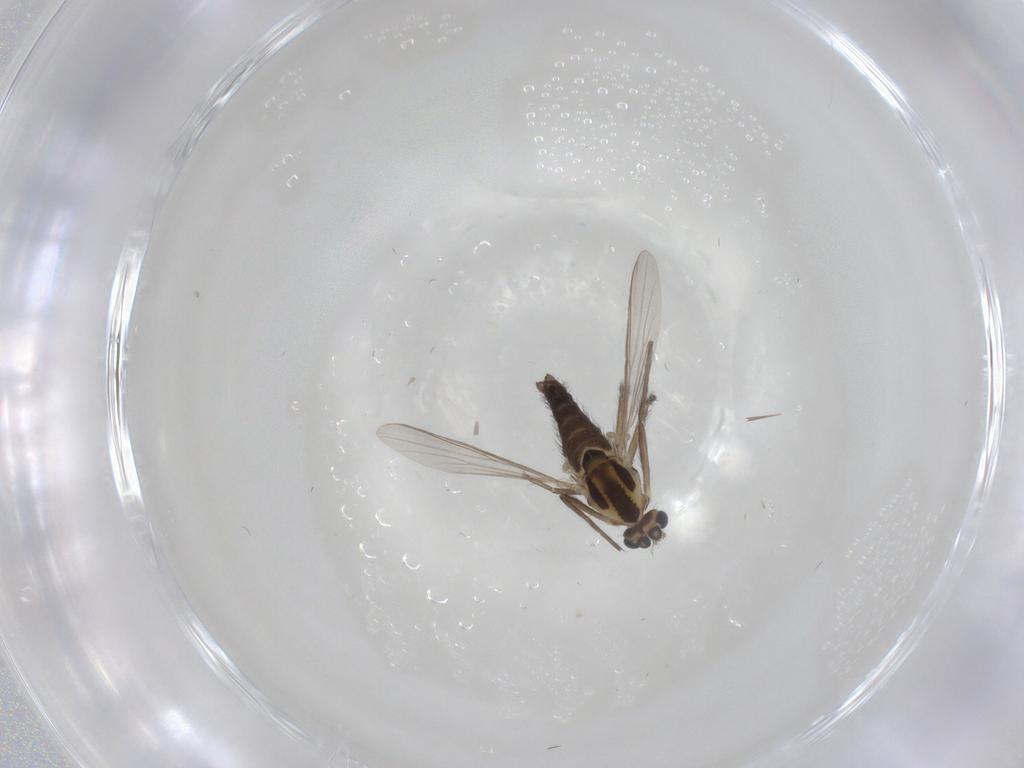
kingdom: Animalia
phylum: Arthropoda
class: Insecta
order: Diptera
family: Chironomidae
